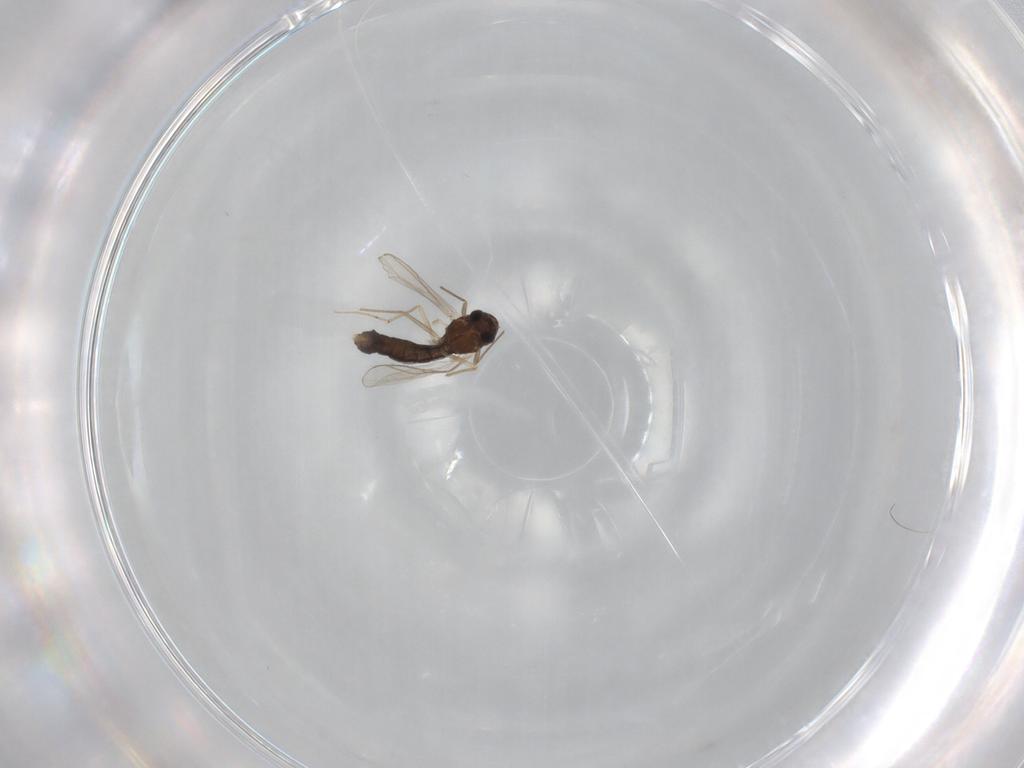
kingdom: Animalia
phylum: Arthropoda
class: Insecta
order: Diptera
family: Chironomidae
